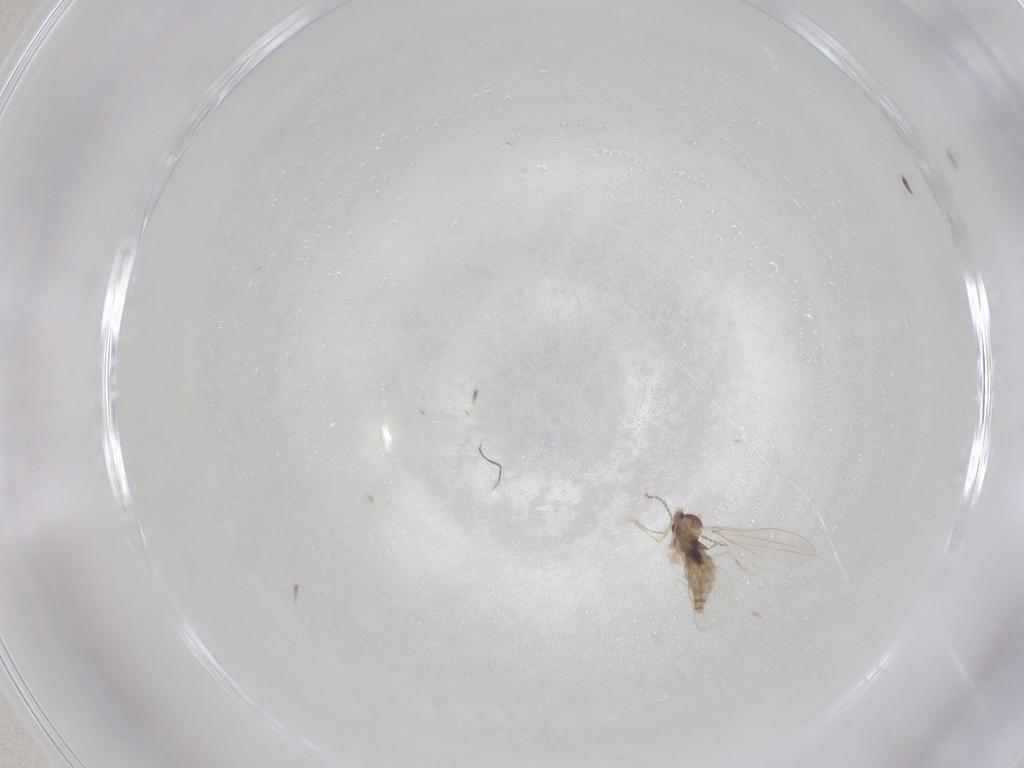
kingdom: Animalia
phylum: Arthropoda
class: Insecta
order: Diptera
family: Cecidomyiidae
